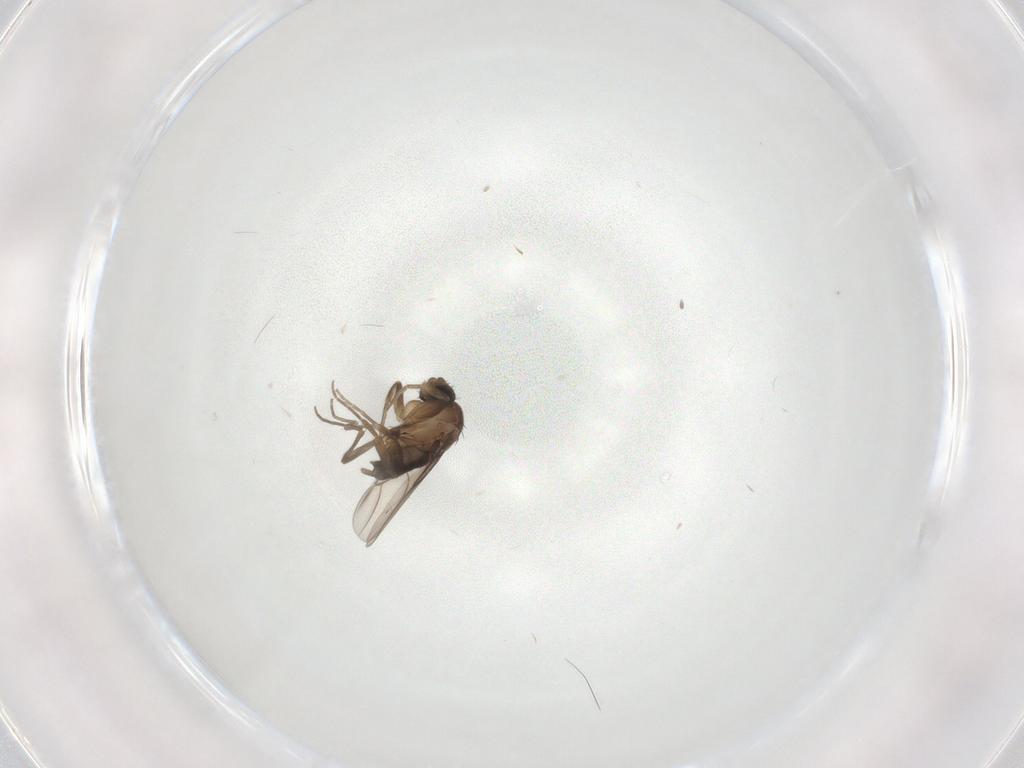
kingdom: Animalia
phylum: Arthropoda
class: Insecta
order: Diptera
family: Phoridae
